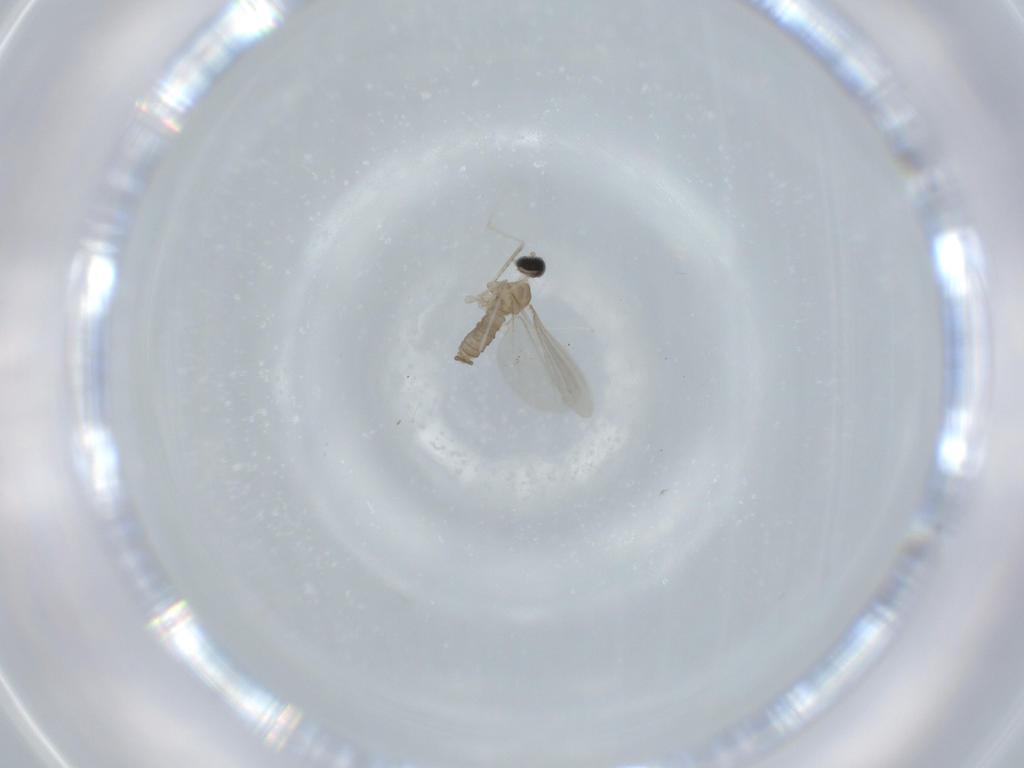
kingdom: Animalia
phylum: Arthropoda
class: Insecta
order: Diptera
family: Cecidomyiidae
